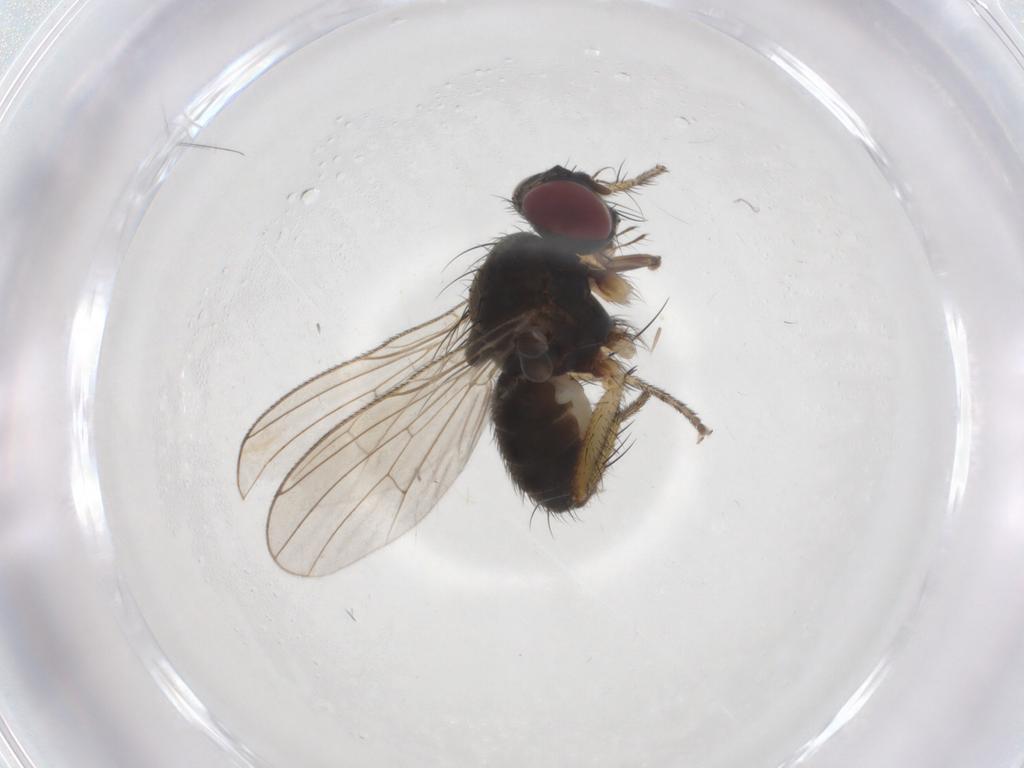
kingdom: Animalia
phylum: Arthropoda
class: Insecta
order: Diptera
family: Muscidae
